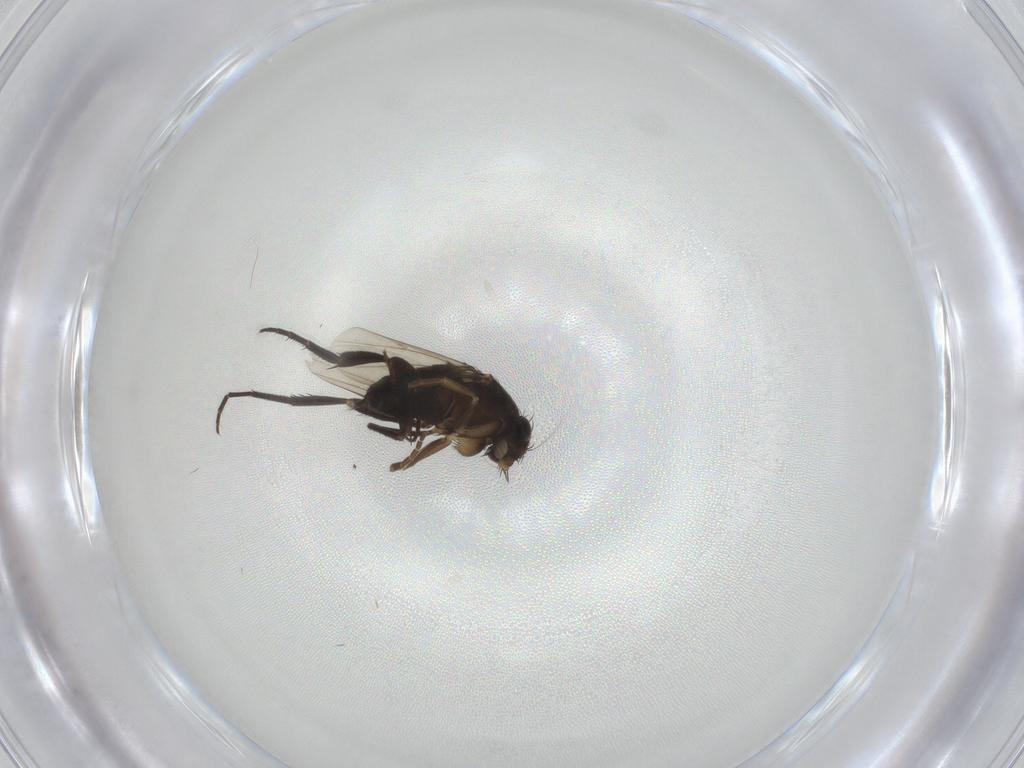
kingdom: Animalia
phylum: Arthropoda
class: Insecta
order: Diptera
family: Phoridae
